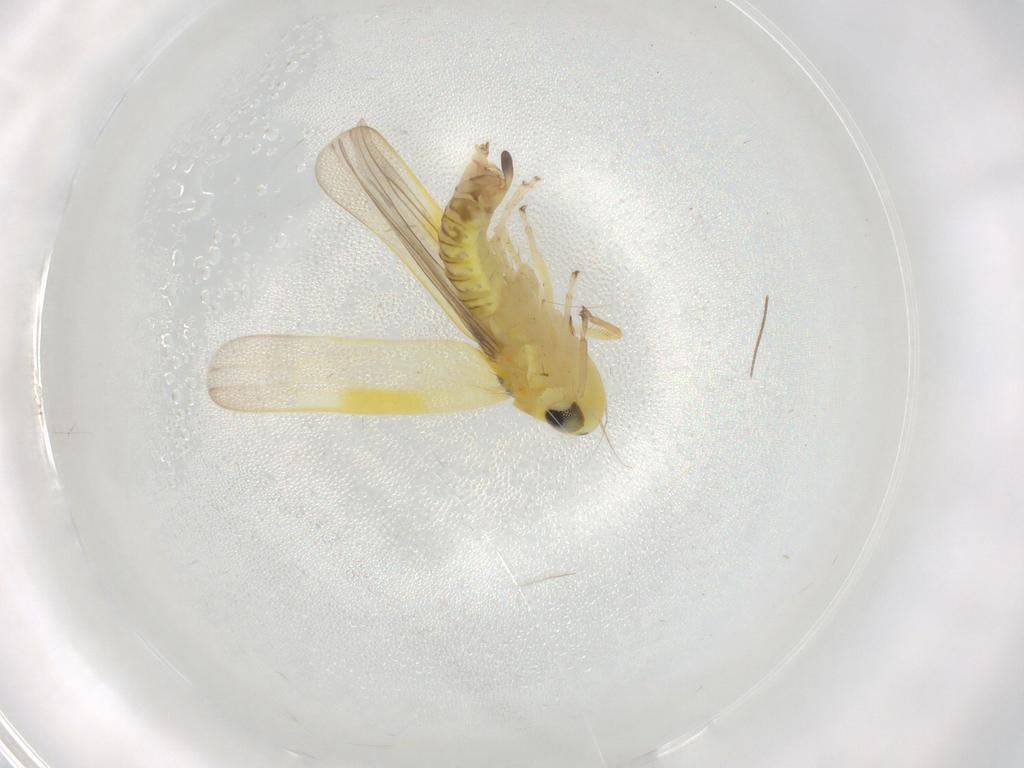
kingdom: Animalia
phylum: Arthropoda
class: Insecta
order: Hemiptera
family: Cicadellidae
